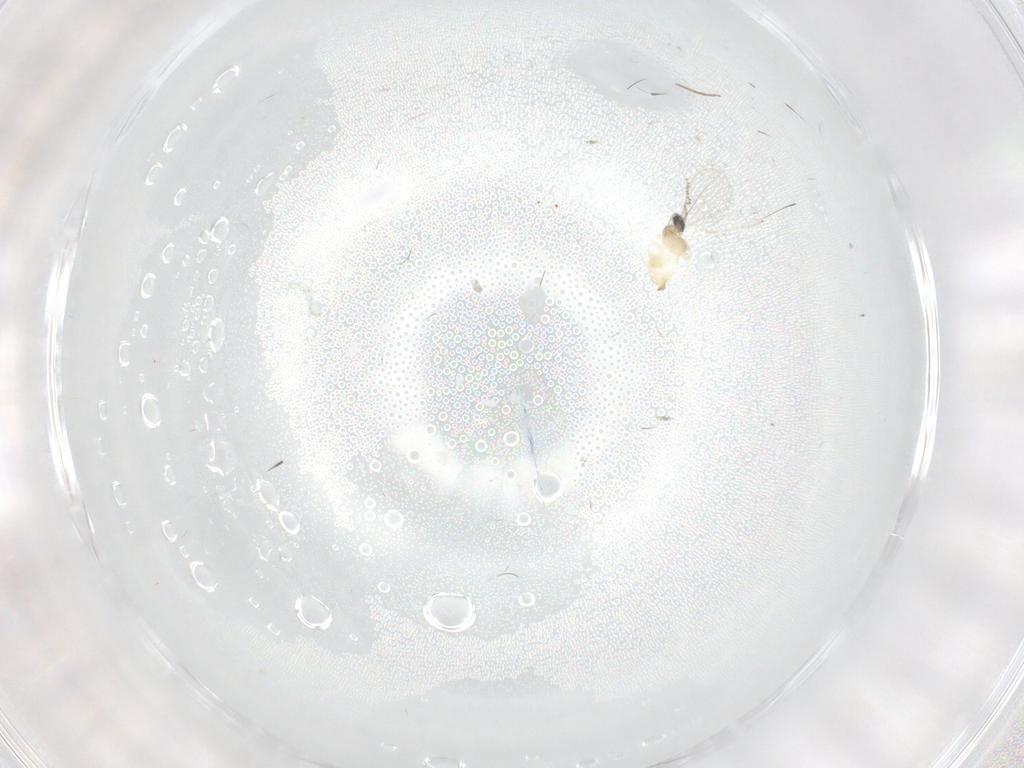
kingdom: Animalia
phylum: Arthropoda
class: Insecta
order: Diptera
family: Cecidomyiidae
